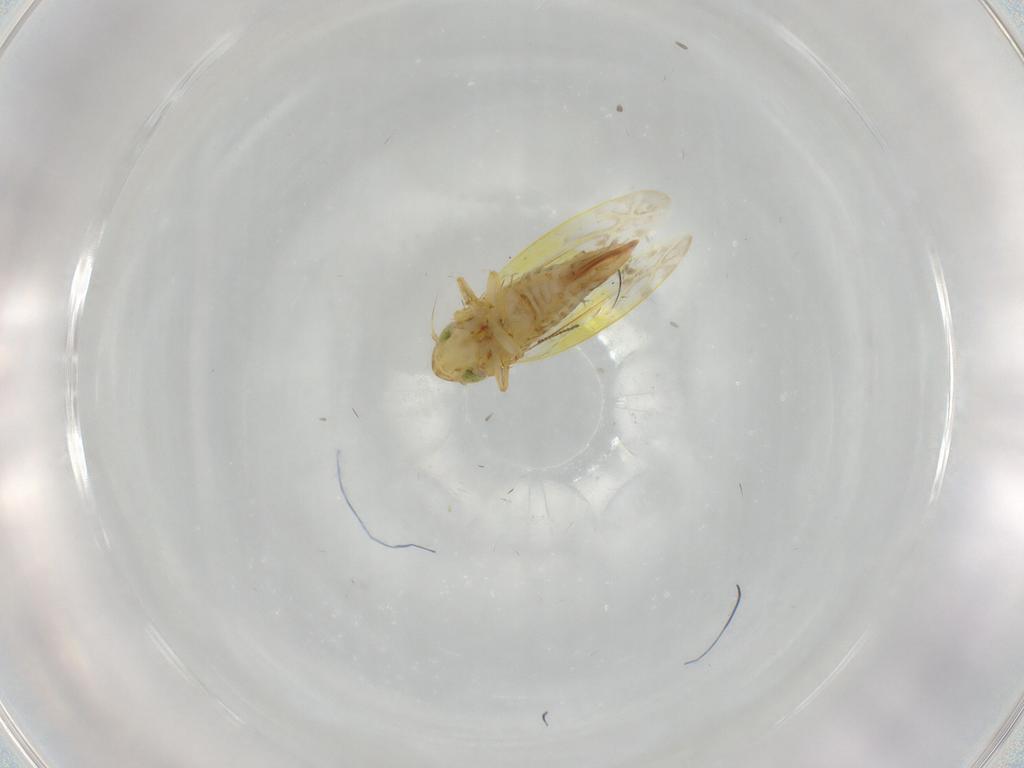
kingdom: Animalia
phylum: Arthropoda
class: Insecta
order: Hemiptera
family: Cicadellidae
